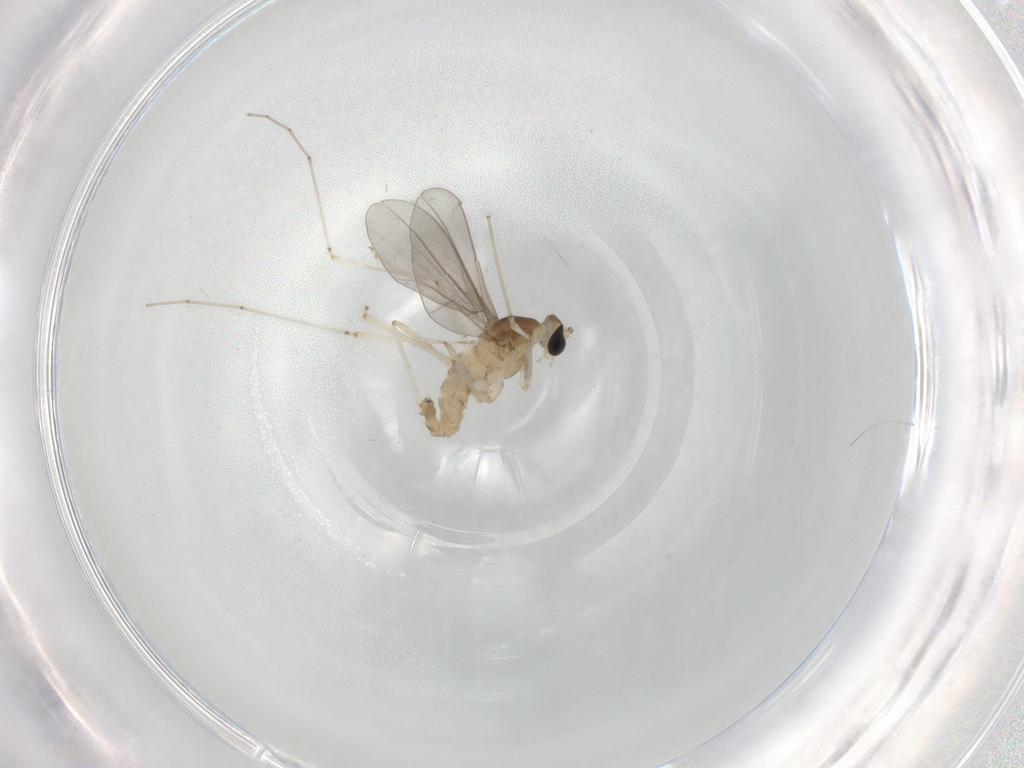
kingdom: Animalia
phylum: Arthropoda
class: Insecta
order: Diptera
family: Cecidomyiidae
